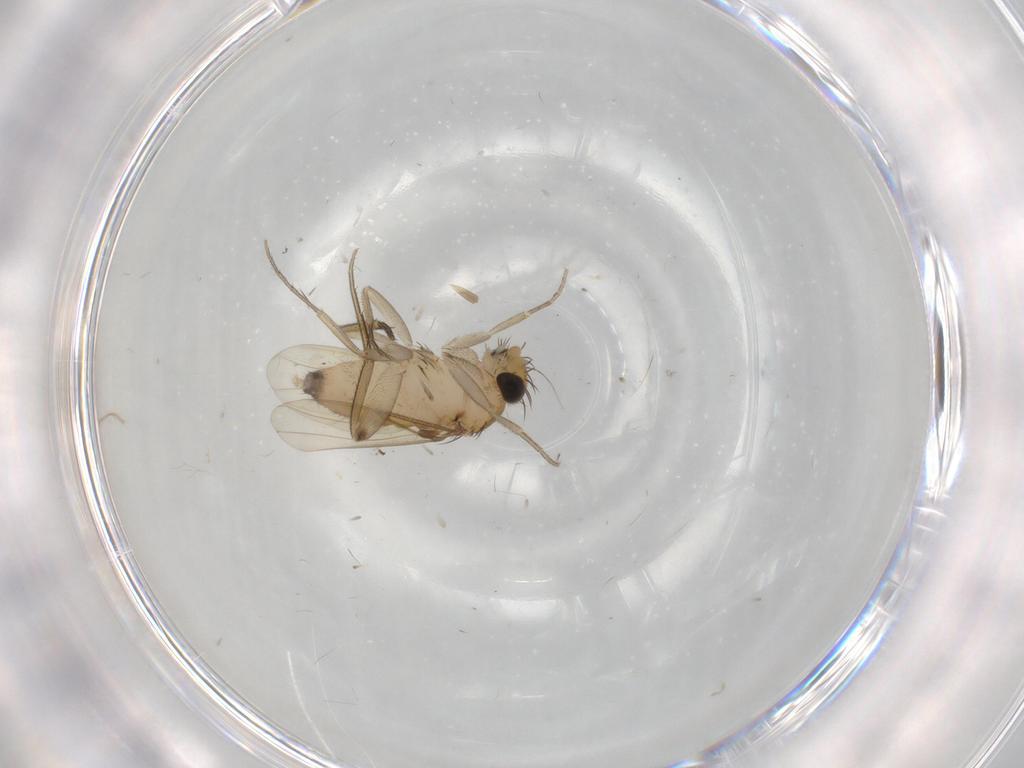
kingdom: Animalia
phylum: Arthropoda
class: Insecta
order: Diptera
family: Phoridae
